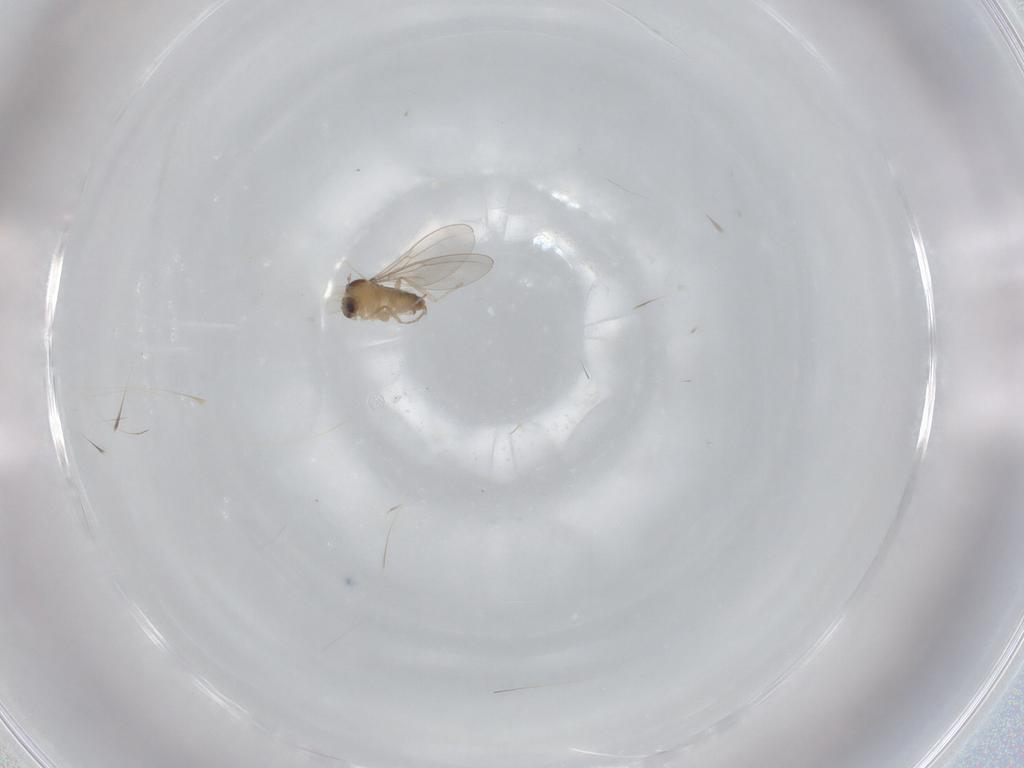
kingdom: Animalia
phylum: Arthropoda
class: Insecta
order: Diptera
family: Cecidomyiidae
